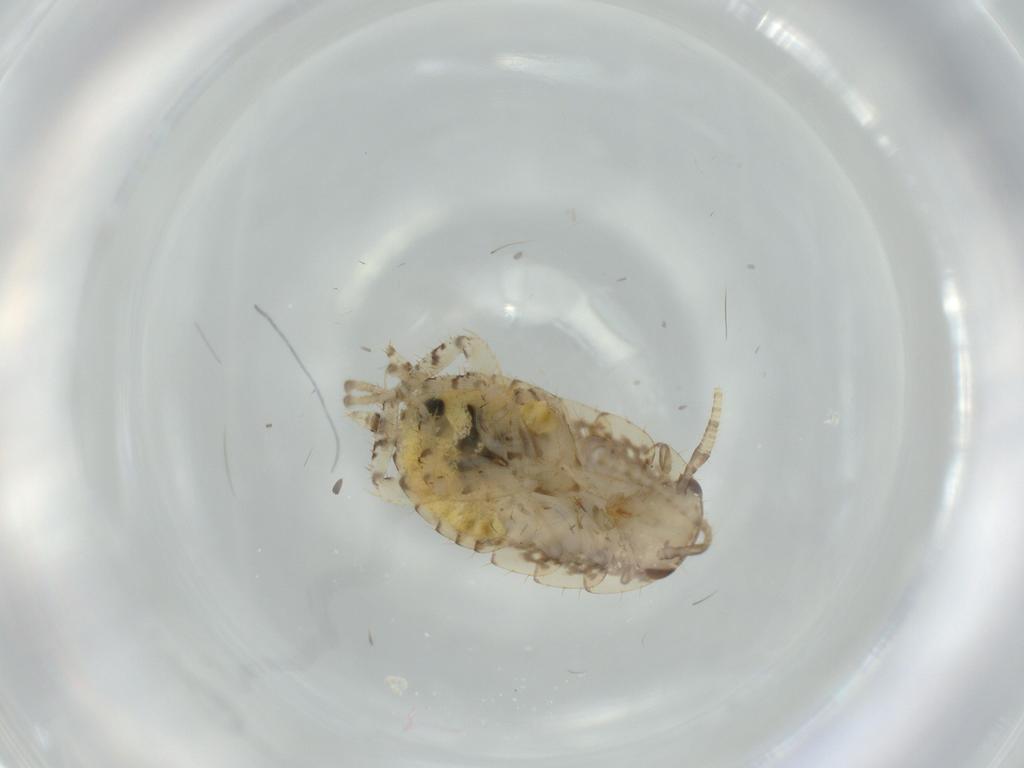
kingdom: Animalia
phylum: Arthropoda
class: Insecta
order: Blattodea
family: Ectobiidae
